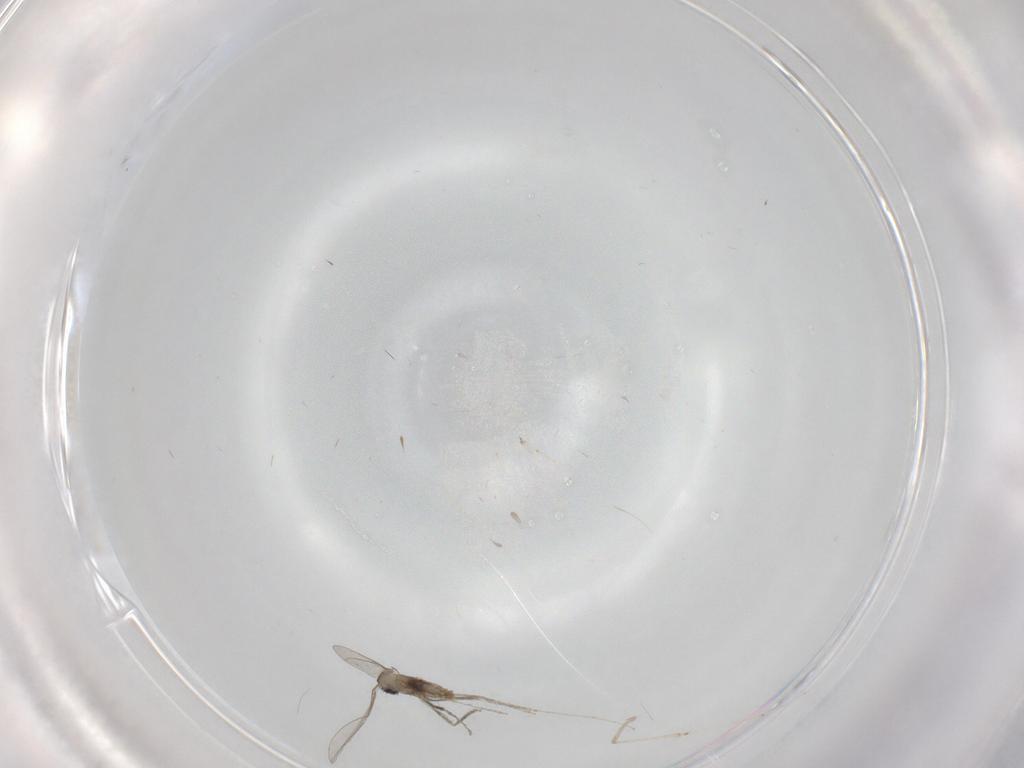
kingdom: Animalia
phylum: Arthropoda
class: Insecta
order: Diptera
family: Cecidomyiidae
